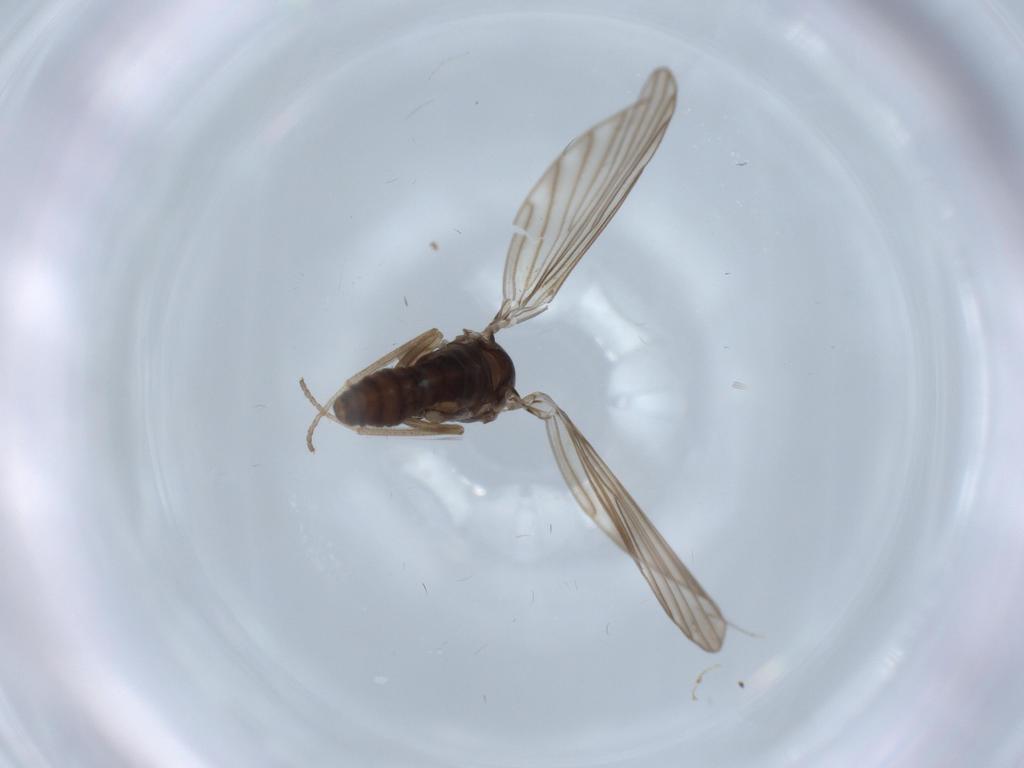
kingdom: Animalia
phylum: Arthropoda
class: Insecta
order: Diptera
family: Psychodidae
